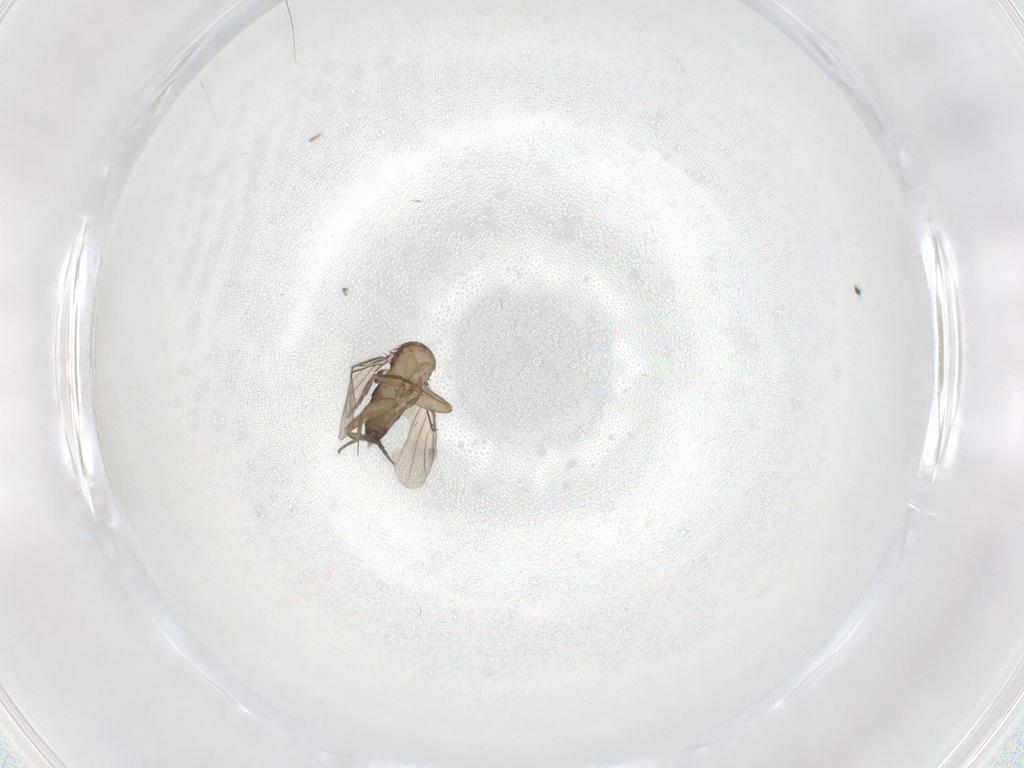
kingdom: Animalia
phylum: Arthropoda
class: Insecta
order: Diptera
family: Phoridae
